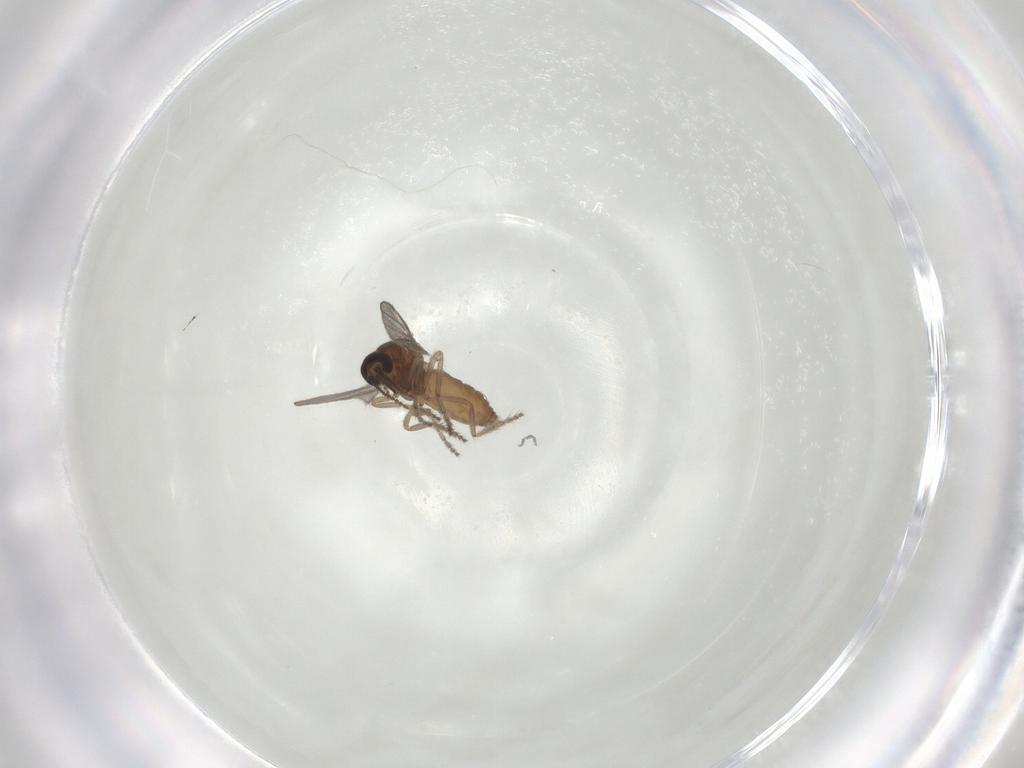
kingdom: Animalia
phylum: Arthropoda
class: Insecta
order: Diptera
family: Ceratopogonidae
